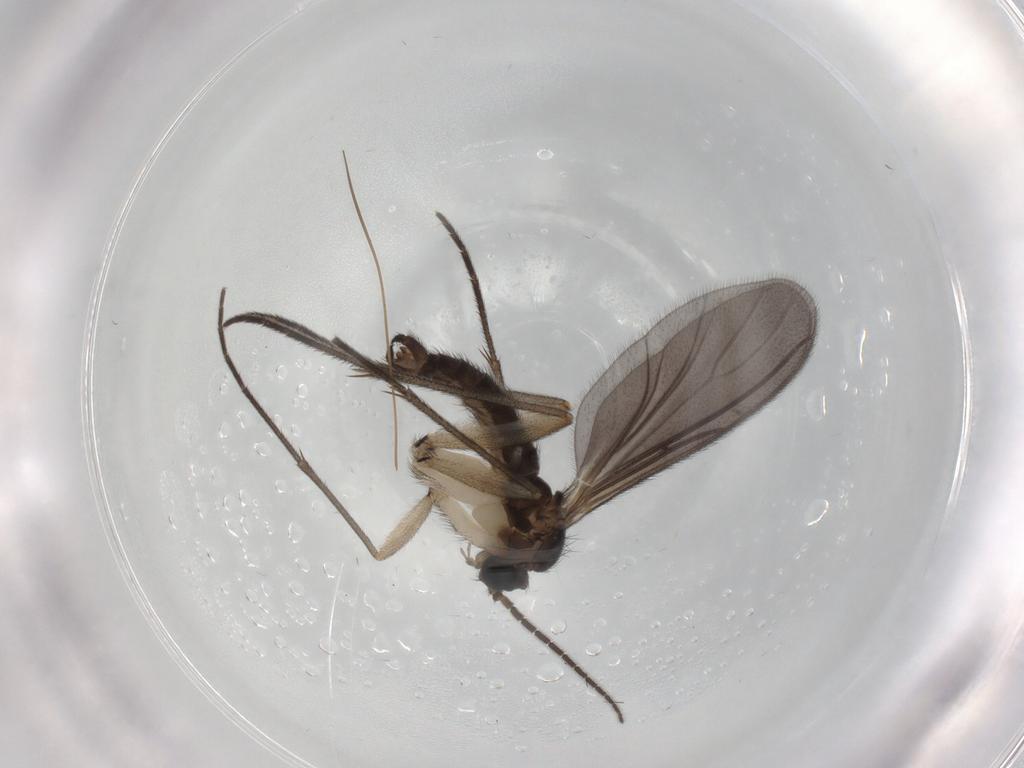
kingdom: Animalia
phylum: Arthropoda
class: Insecta
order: Diptera
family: Sciaridae
